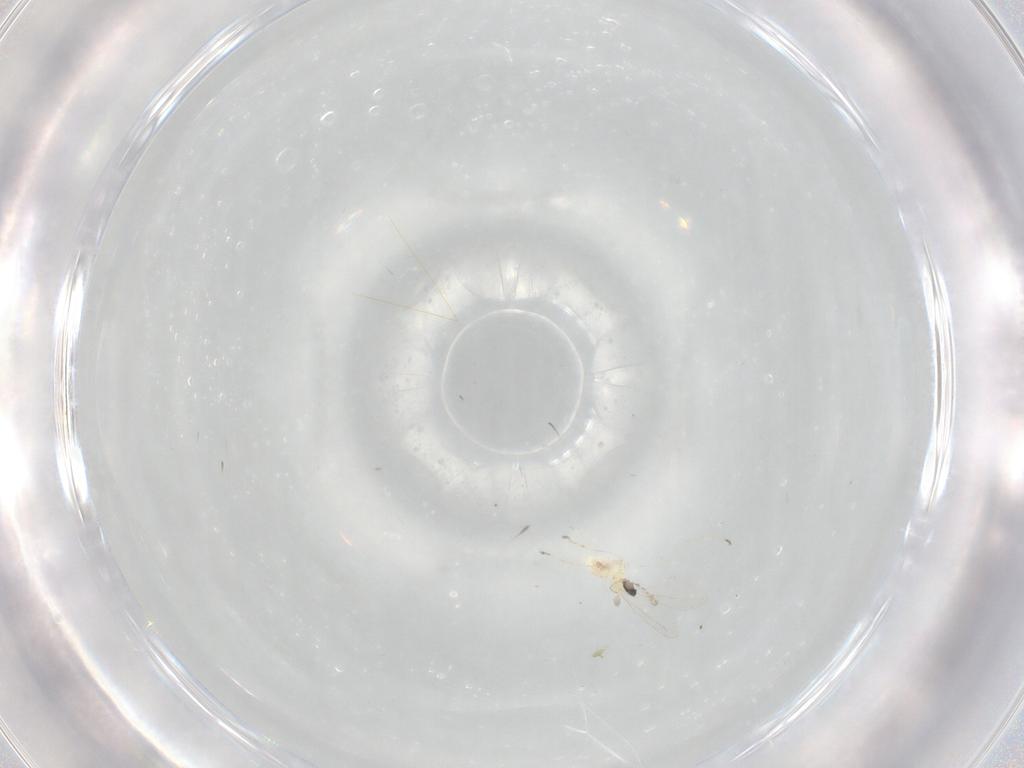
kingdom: Animalia
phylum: Arthropoda
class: Insecta
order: Diptera
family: Cecidomyiidae
